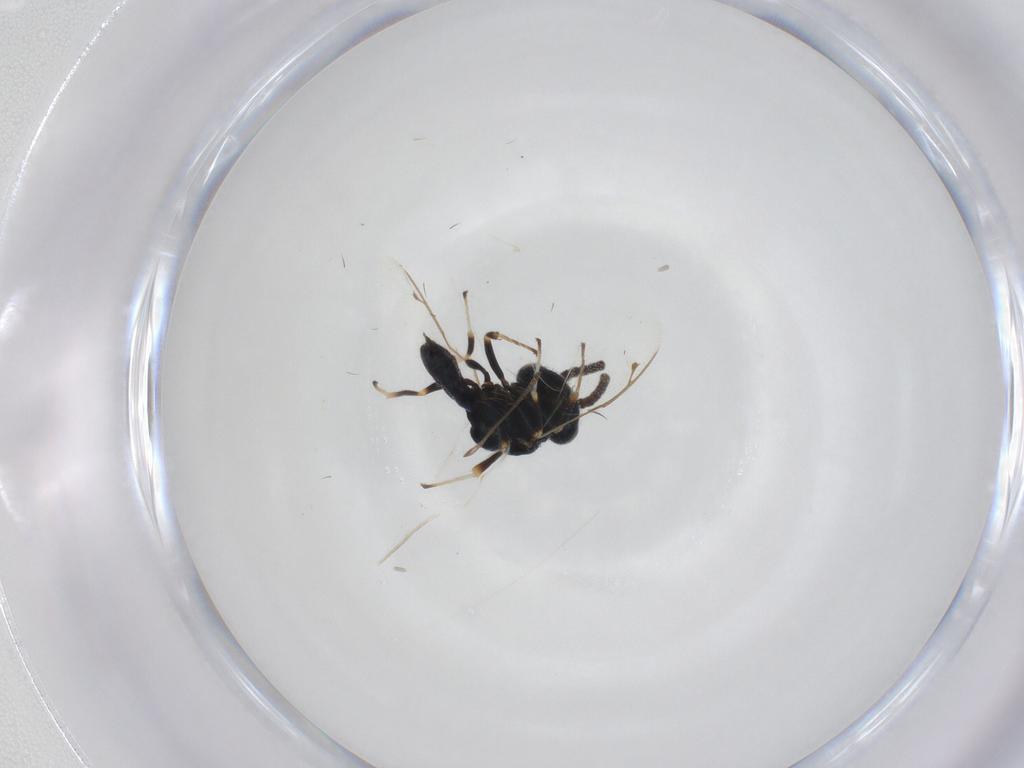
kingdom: Animalia
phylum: Arthropoda
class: Insecta
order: Hymenoptera
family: Pteromalidae
